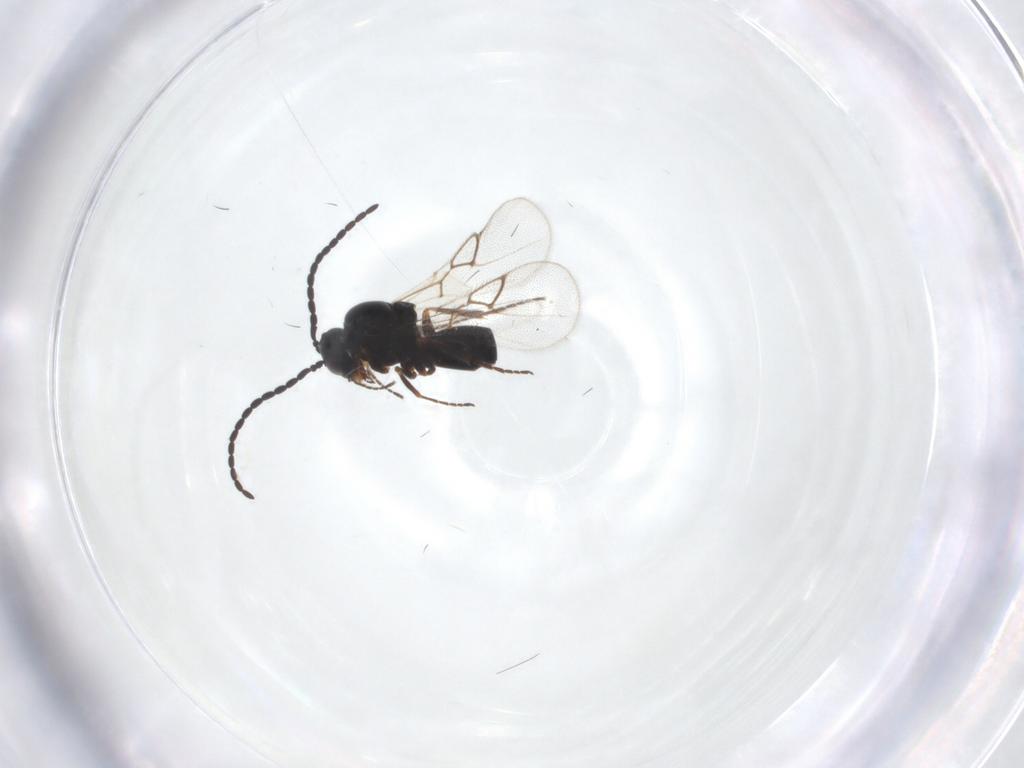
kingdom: Animalia
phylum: Arthropoda
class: Insecta
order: Hymenoptera
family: Figitidae
